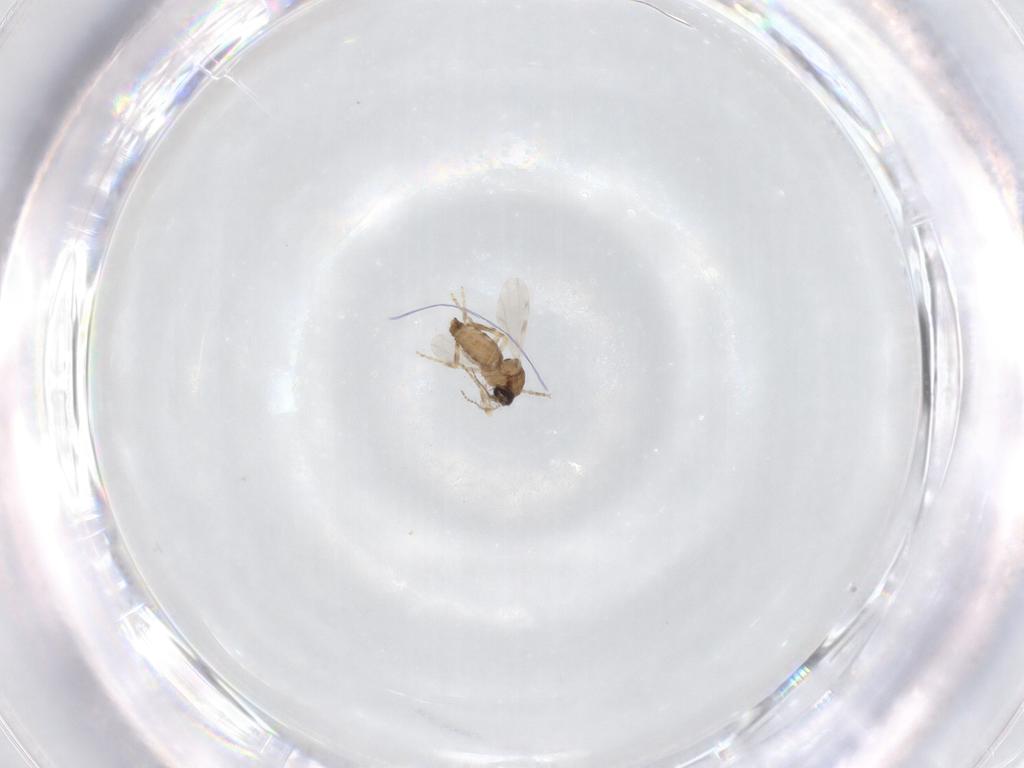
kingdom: Animalia
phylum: Arthropoda
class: Insecta
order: Diptera
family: Ceratopogonidae
